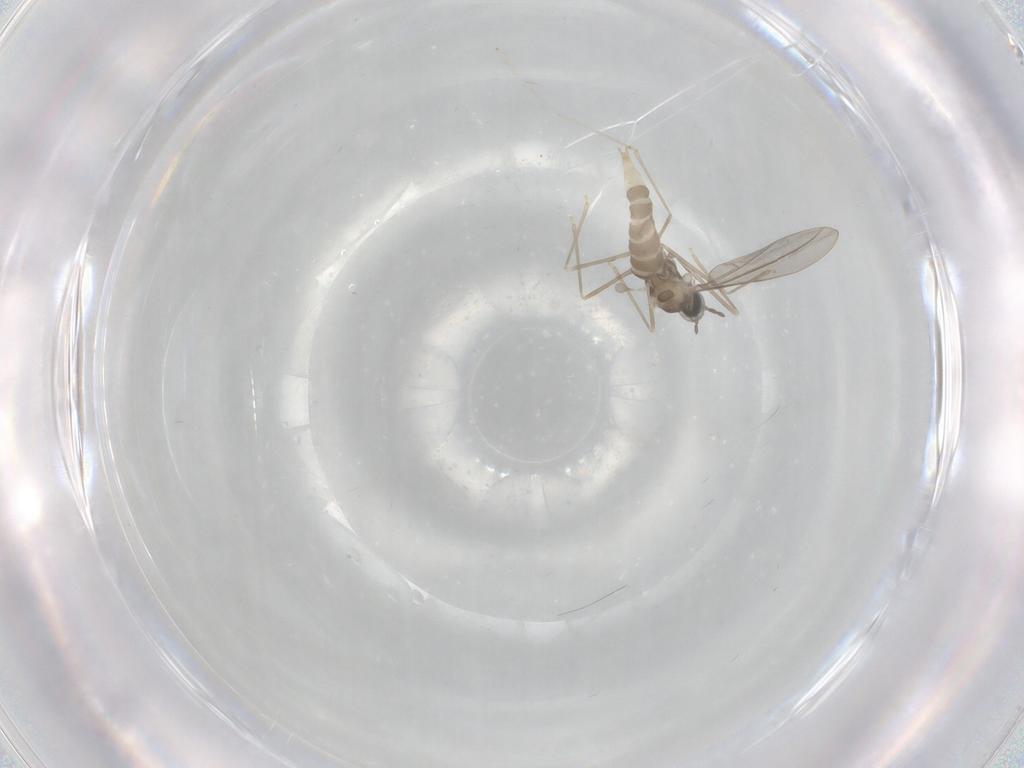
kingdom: Animalia
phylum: Arthropoda
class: Insecta
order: Diptera
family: Cecidomyiidae
